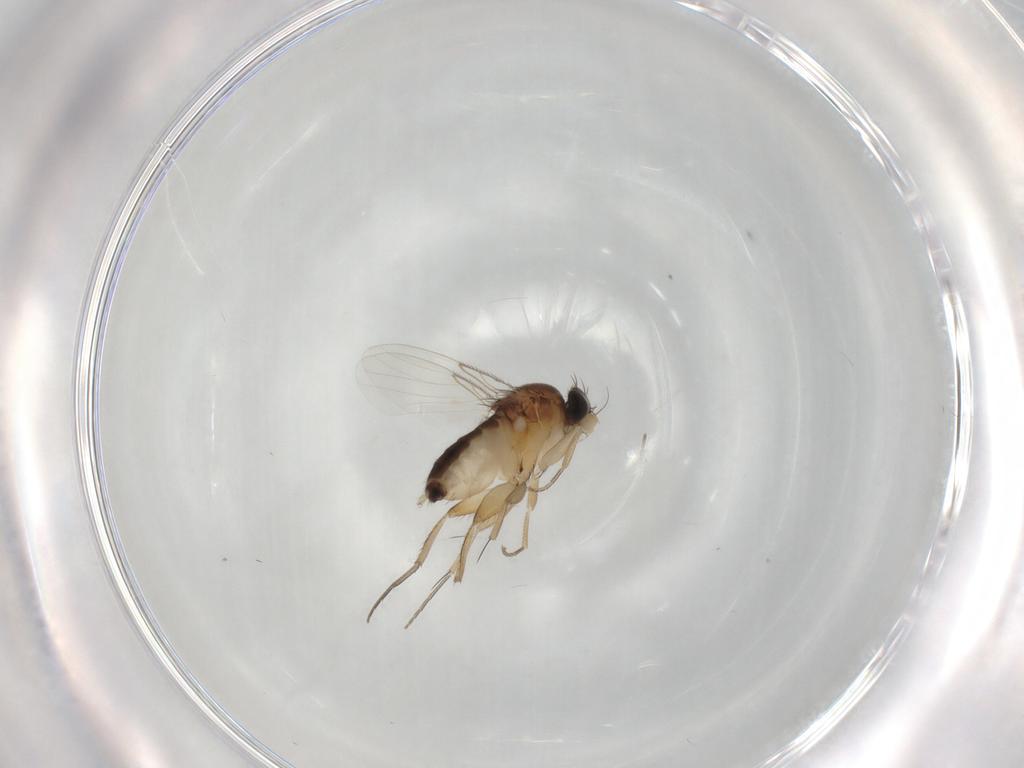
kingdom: Animalia
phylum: Arthropoda
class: Insecta
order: Diptera
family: Phoridae
